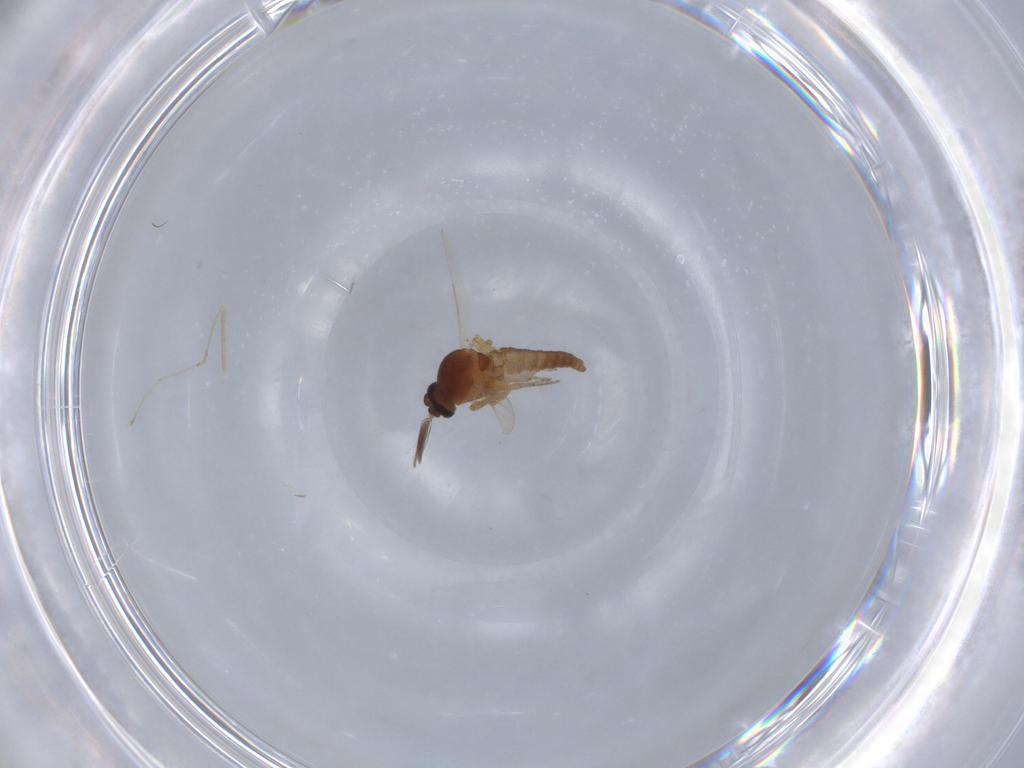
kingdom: Animalia
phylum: Arthropoda
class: Insecta
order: Diptera
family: Ceratopogonidae
